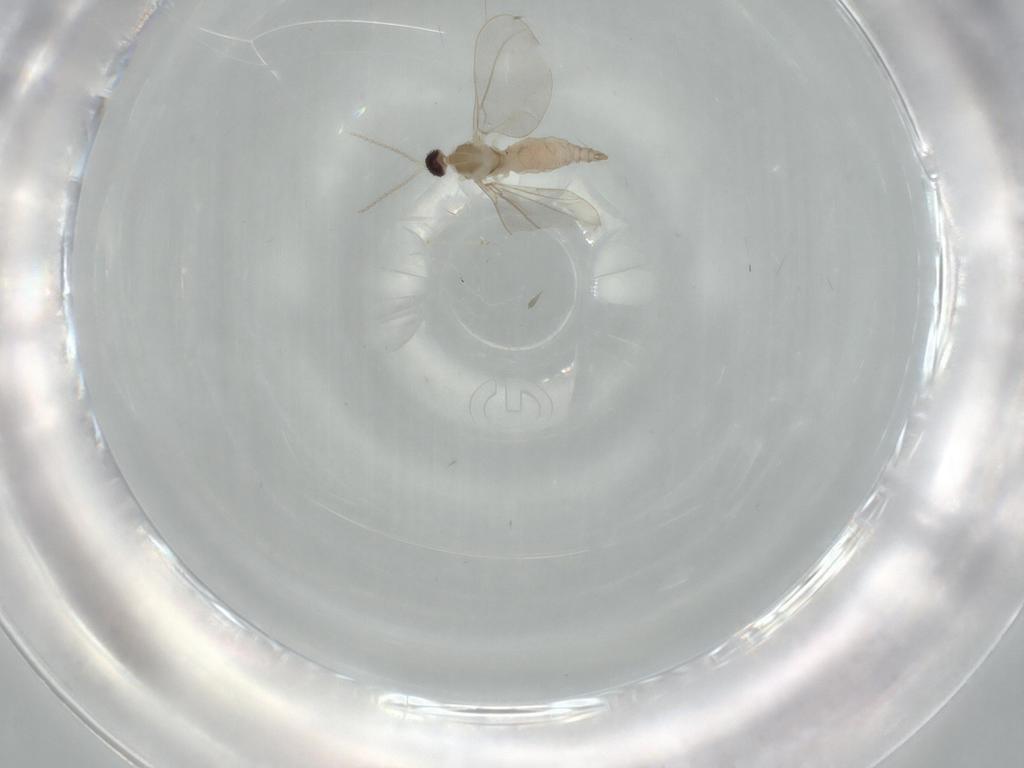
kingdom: Animalia
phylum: Arthropoda
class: Insecta
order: Diptera
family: Cecidomyiidae
